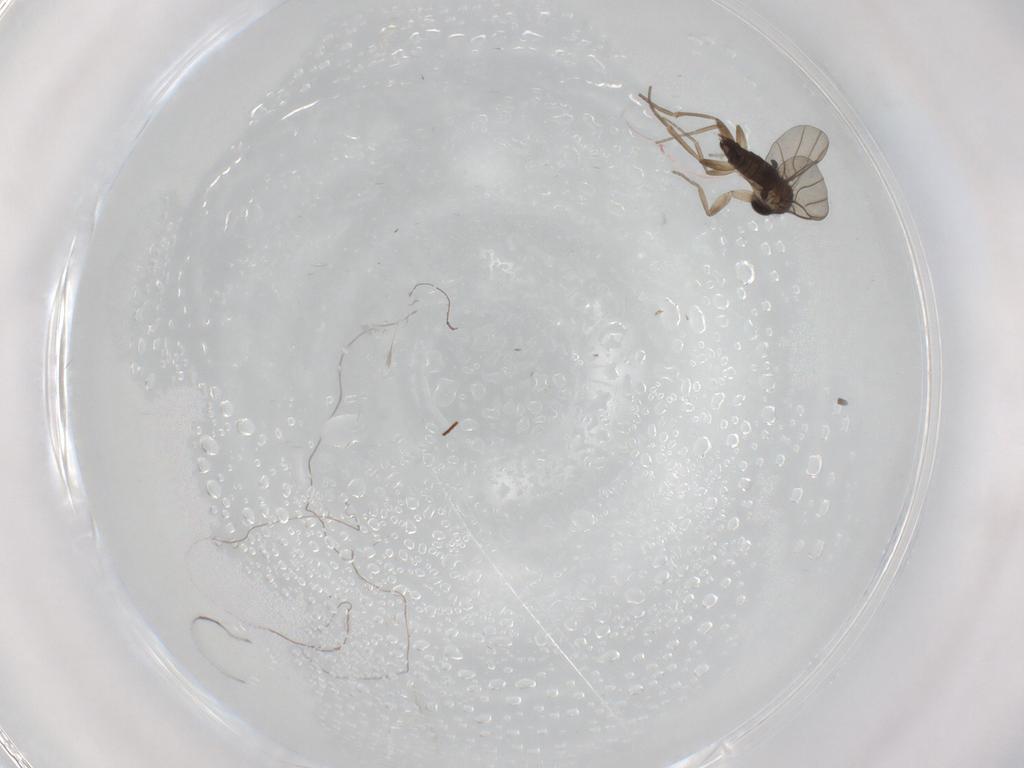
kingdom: Animalia
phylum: Arthropoda
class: Insecta
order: Diptera
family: Phoridae
